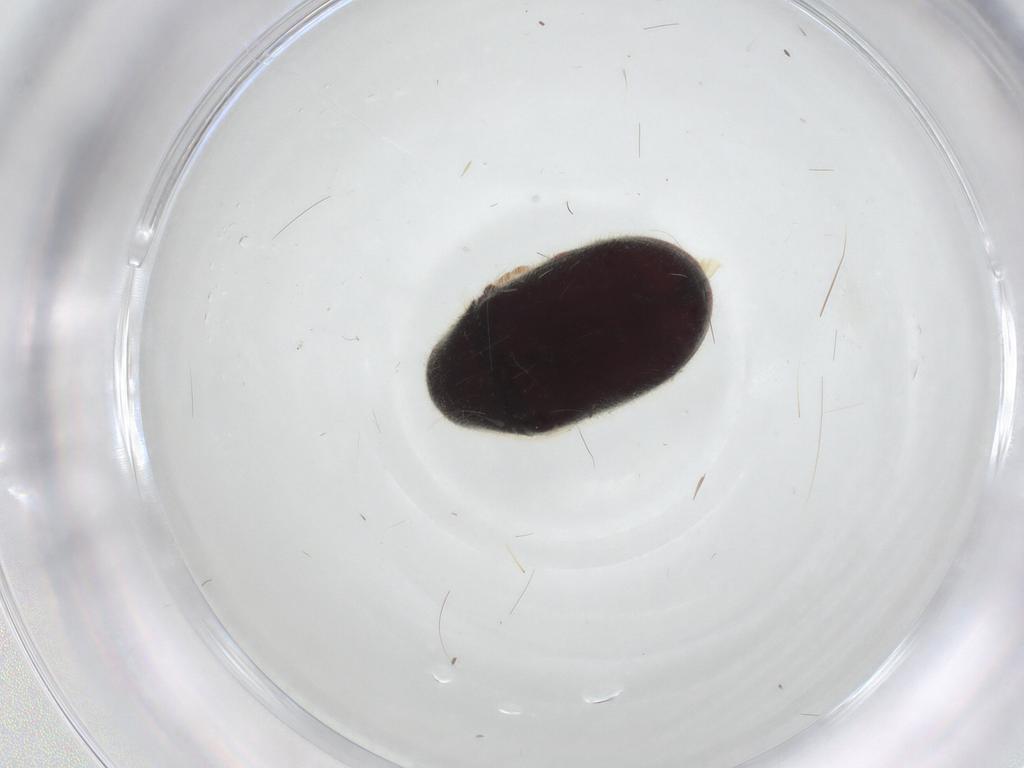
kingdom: Animalia
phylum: Arthropoda
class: Insecta
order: Coleoptera
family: Ptinidae
